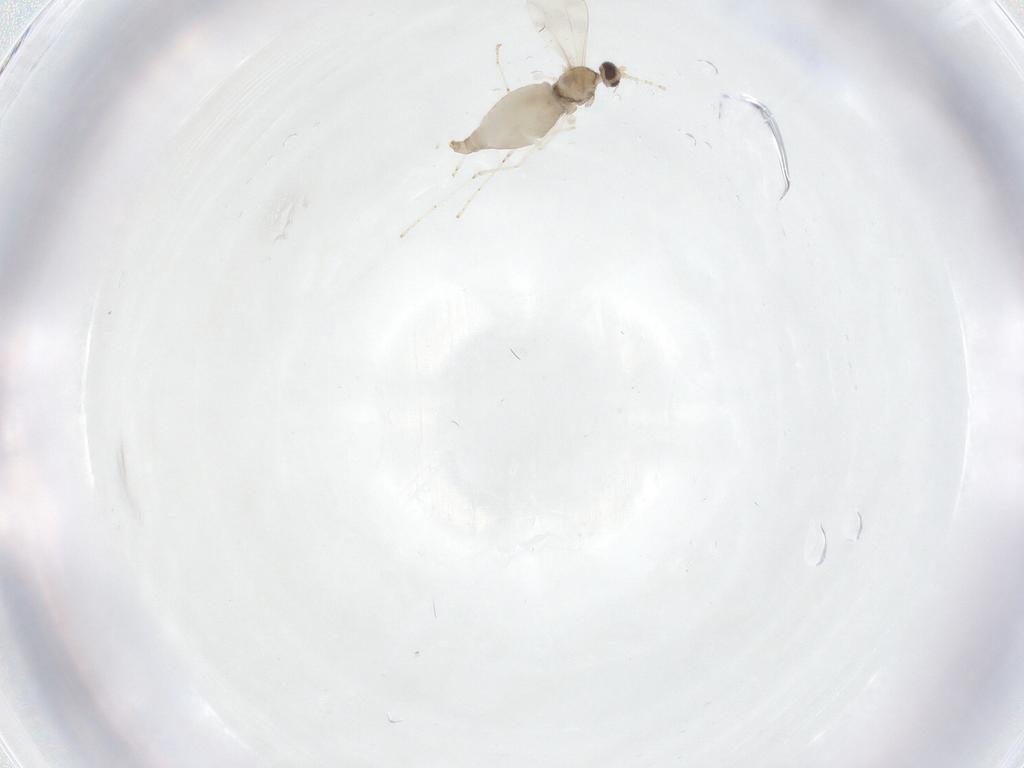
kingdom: Animalia
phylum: Arthropoda
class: Insecta
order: Diptera
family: Cecidomyiidae
